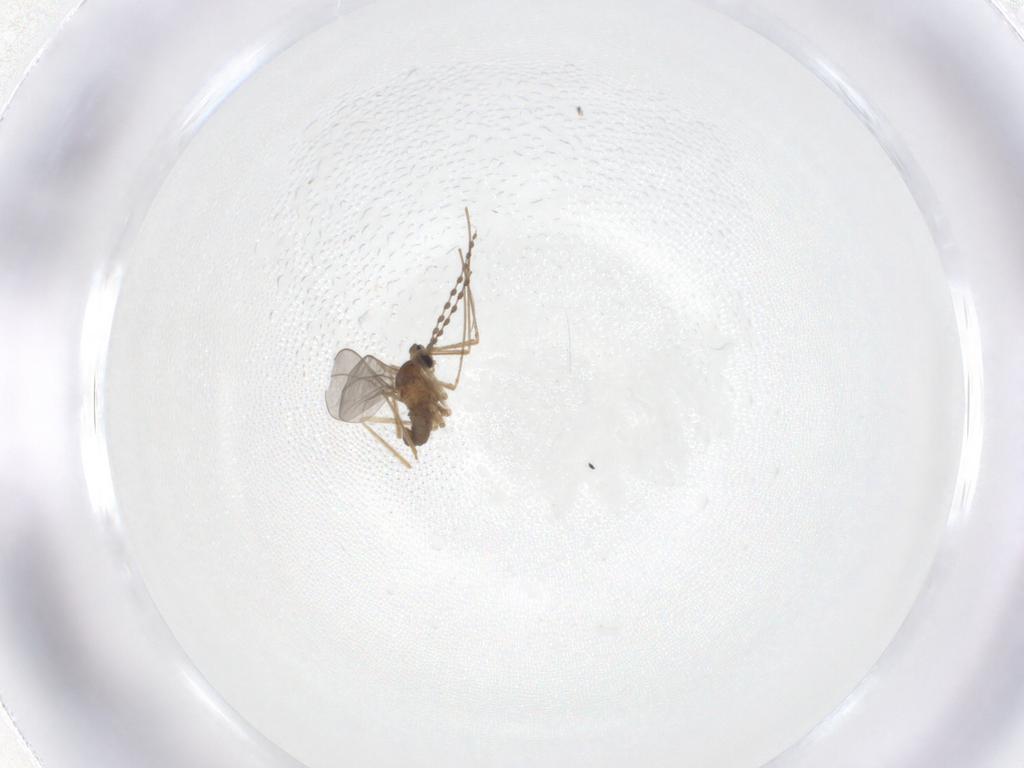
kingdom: Animalia
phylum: Arthropoda
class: Insecta
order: Diptera
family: Cecidomyiidae
